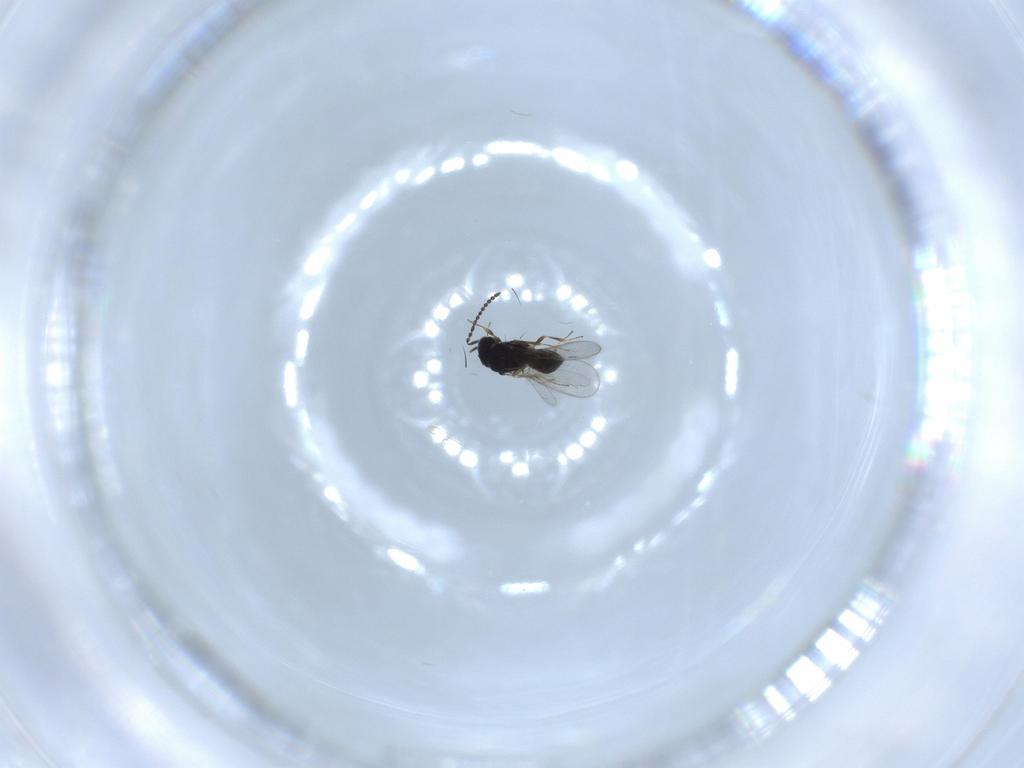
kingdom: Animalia
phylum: Arthropoda
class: Insecta
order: Hymenoptera
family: Scelionidae
